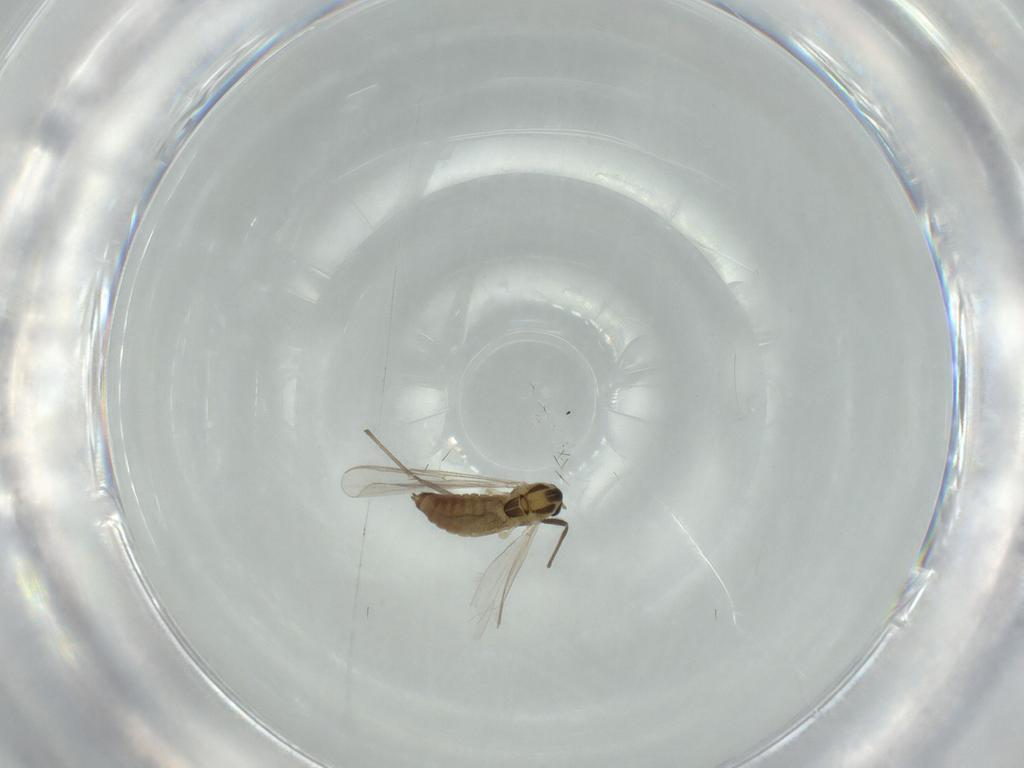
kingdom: Animalia
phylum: Arthropoda
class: Insecta
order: Diptera
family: Chironomidae
